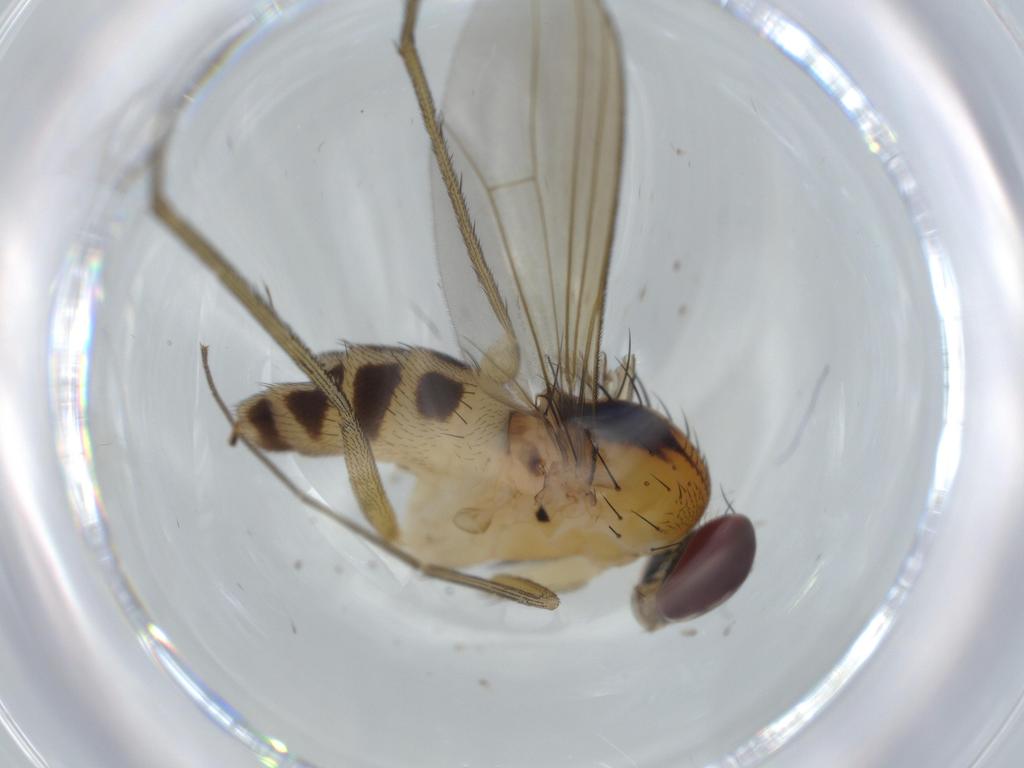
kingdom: Animalia
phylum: Arthropoda
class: Insecta
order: Diptera
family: Dolichopodidae
